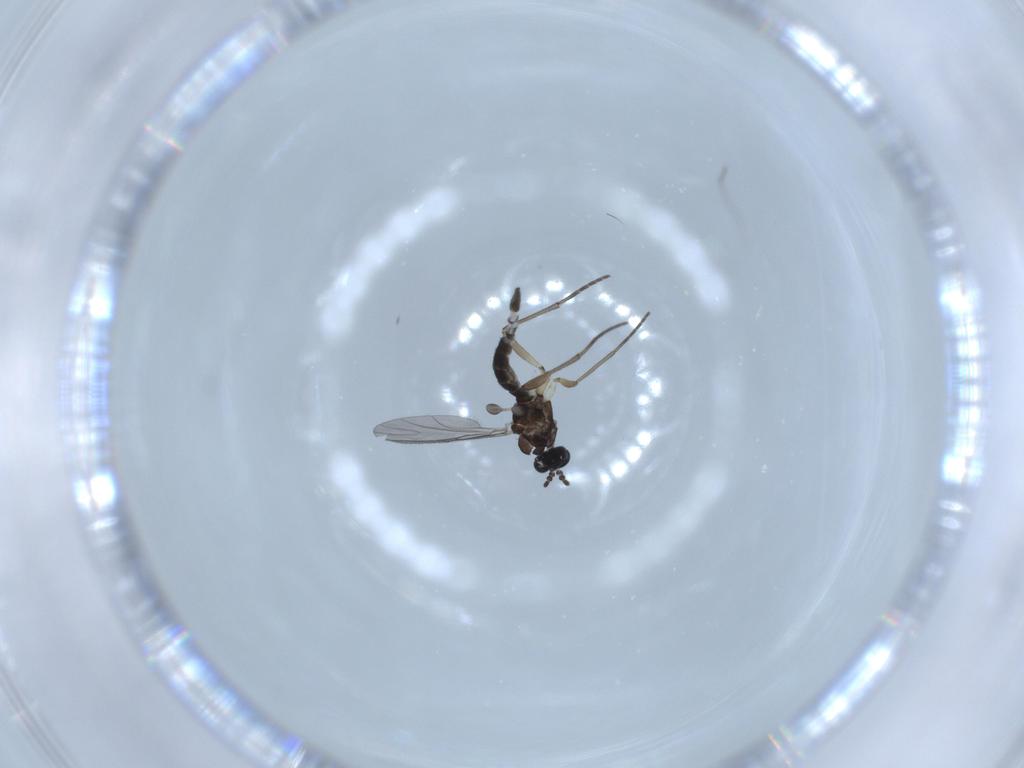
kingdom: Animalia
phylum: Arthropoda
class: Insecta
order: Diptera
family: Sciaridae
